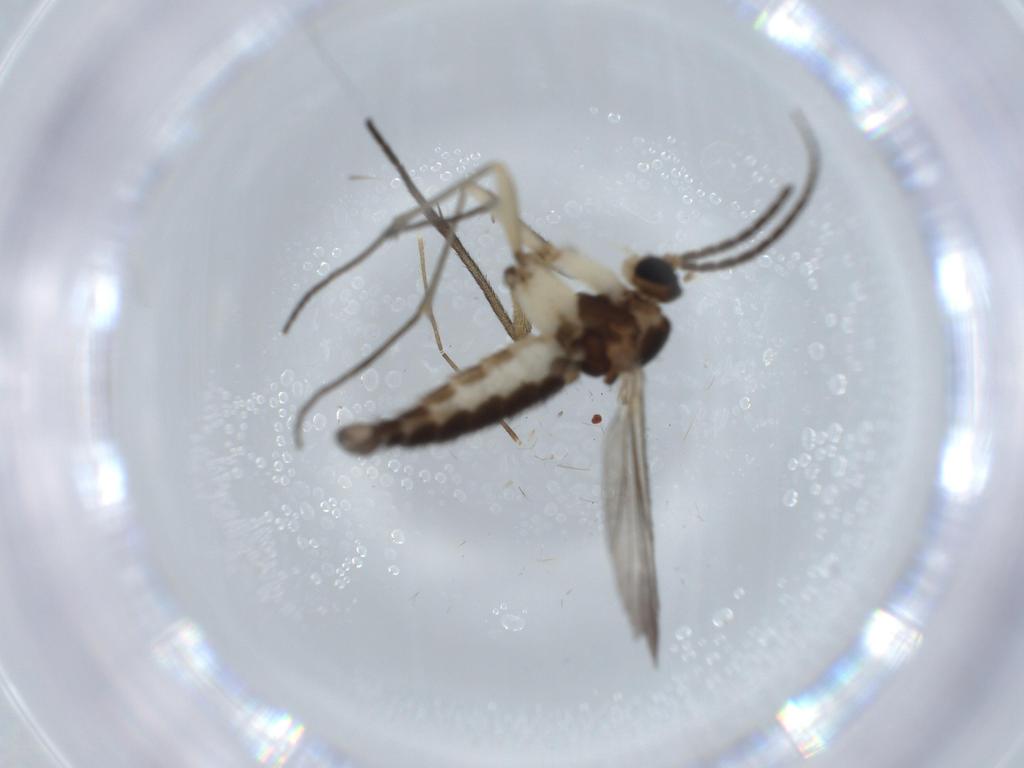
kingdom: Animalia
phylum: Arthropoda
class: Insecta
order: Diptera
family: Sciaridae
